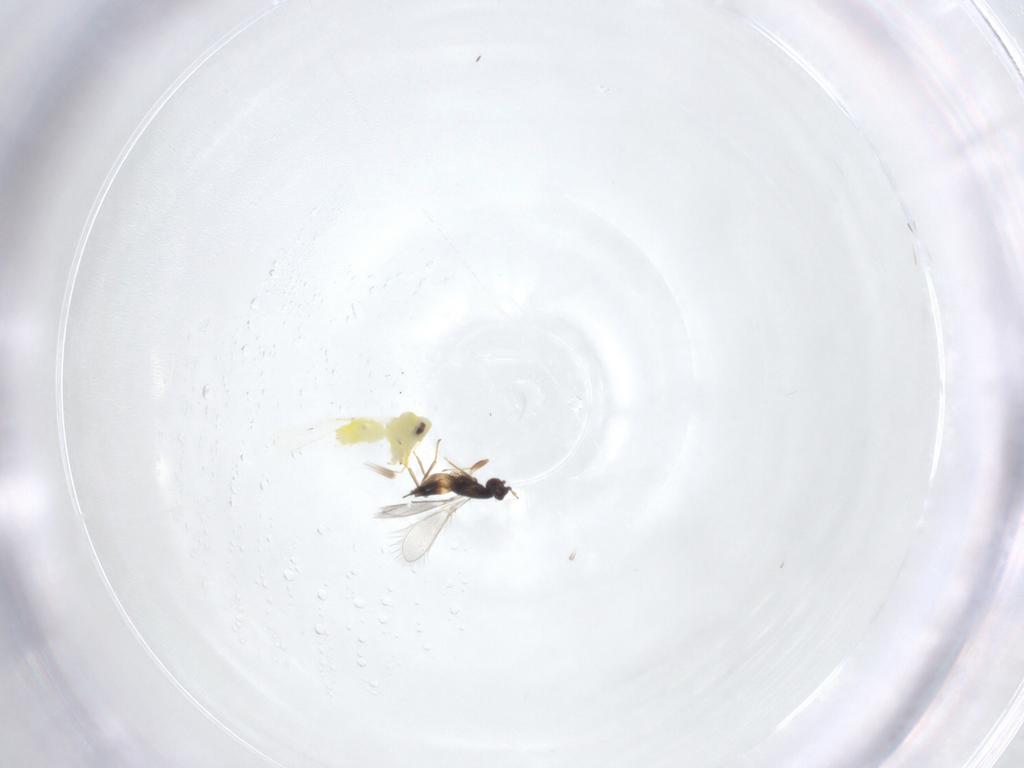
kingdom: Animalia
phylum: Arthropoda
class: Insecta
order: Hymenoptera
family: Mymaridae
